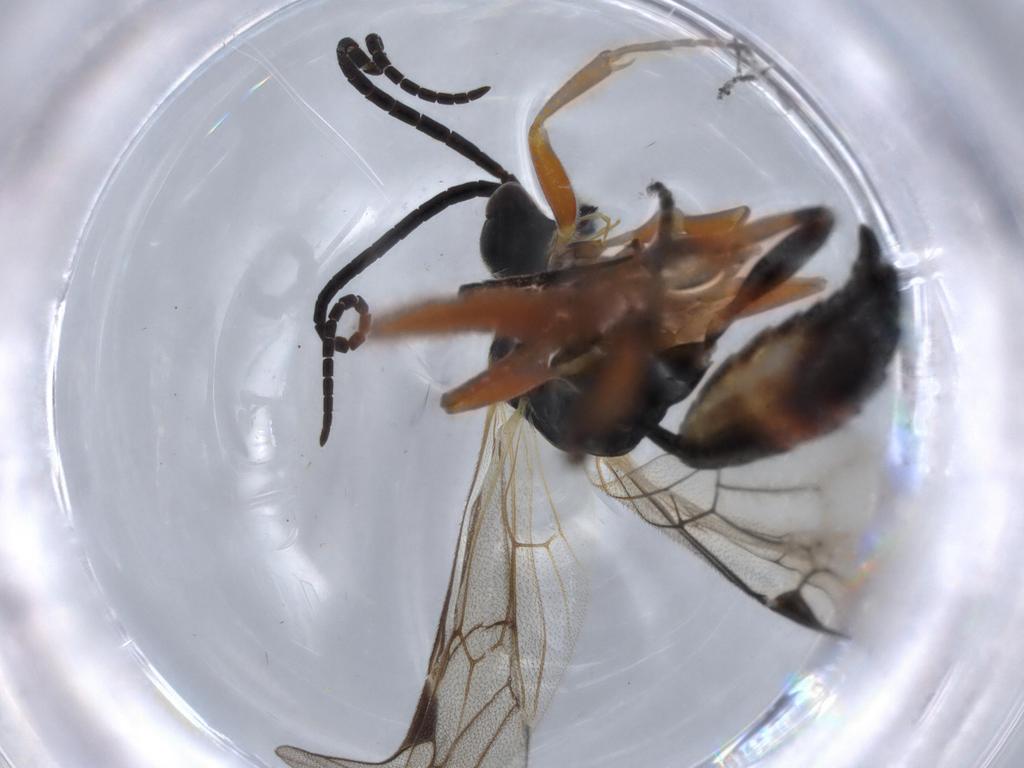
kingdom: Animalia
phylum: Arthropoda
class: Insecta
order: Hymenoptera
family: Ichneumonidae
